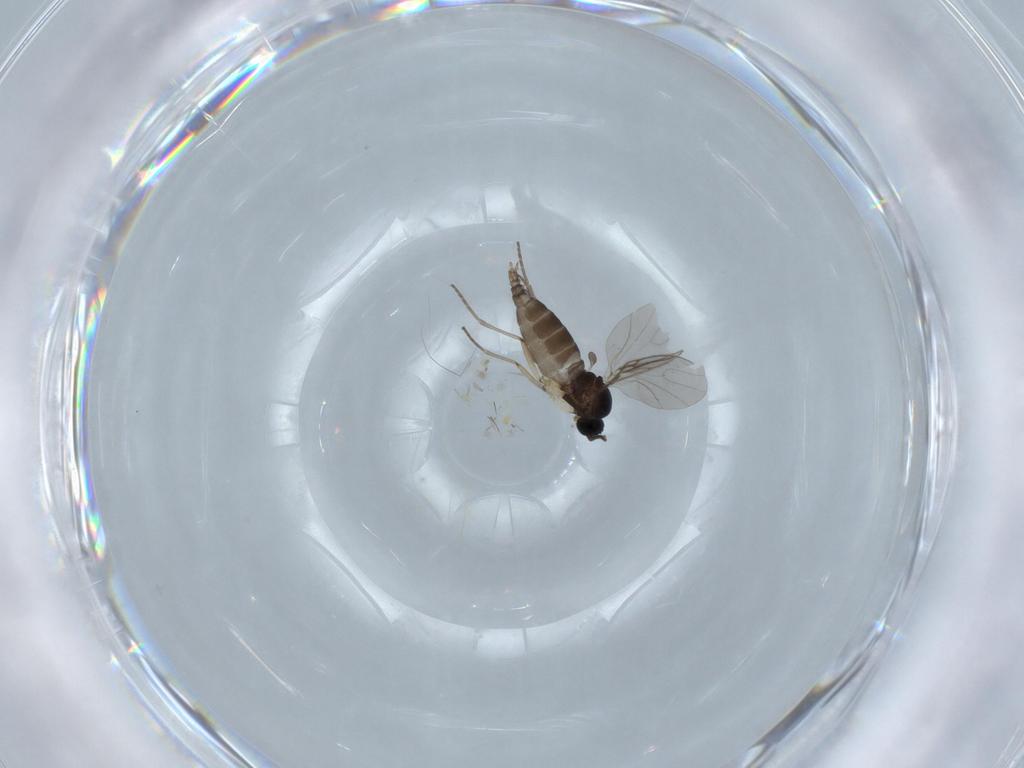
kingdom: Animalia
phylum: Arthropoda
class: Insecta
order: Diptera
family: Sciaridae
